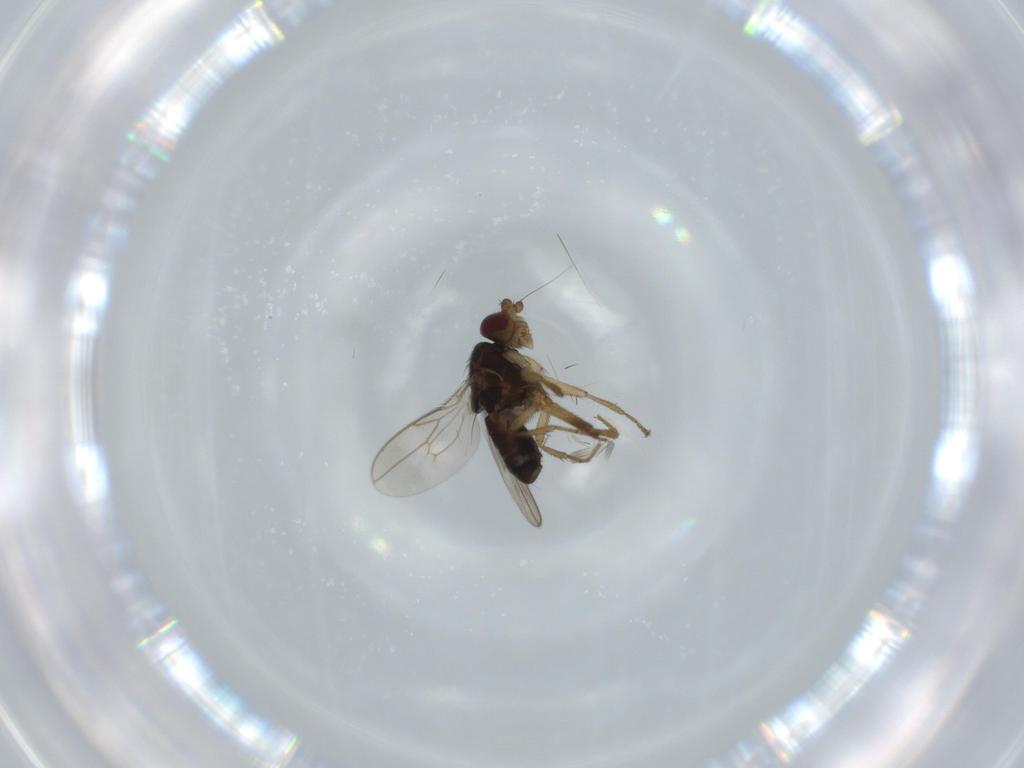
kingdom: Animalia
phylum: Arthropoda
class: Insecta
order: Diptera
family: Sphaeroceridae
